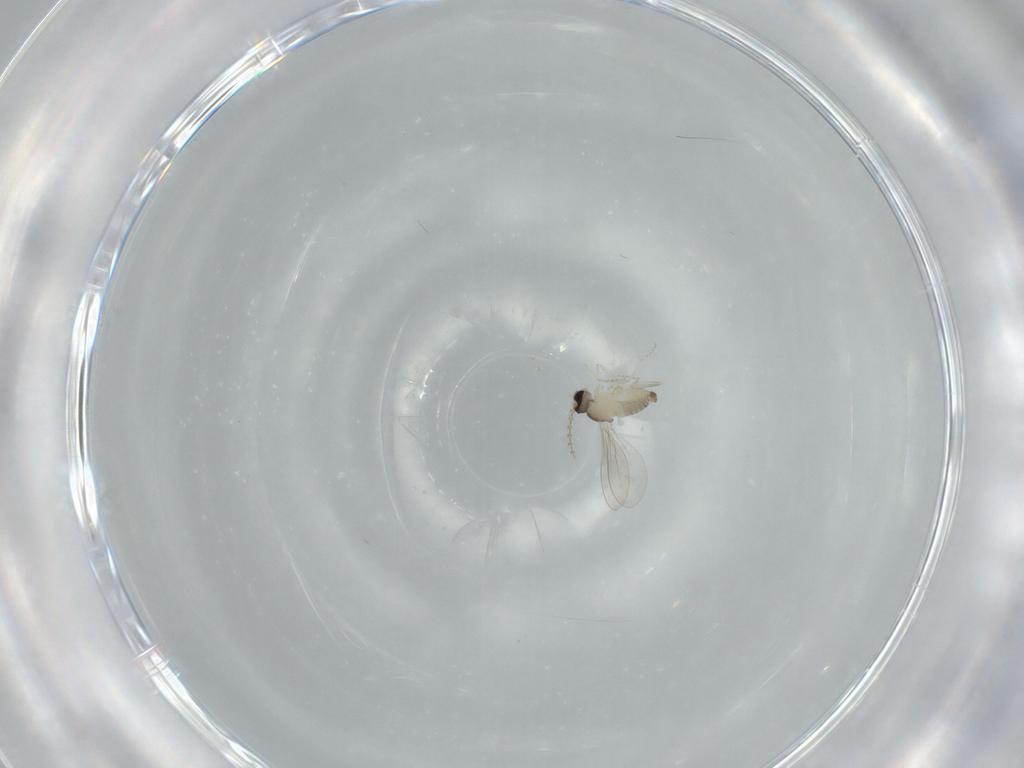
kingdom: Animalia
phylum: Arthropoda
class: Insecta
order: Diptera
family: Cecidomyiidae
